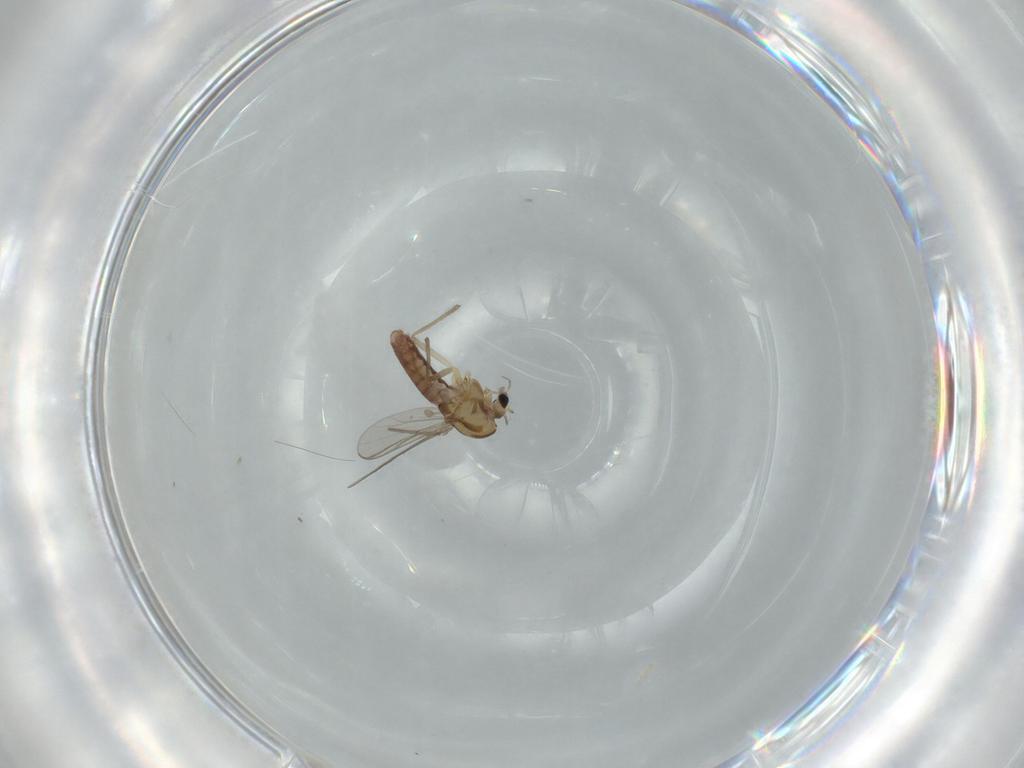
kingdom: Animalia
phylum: Arthropoda
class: Insecta
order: Diptera
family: Chironomidae
